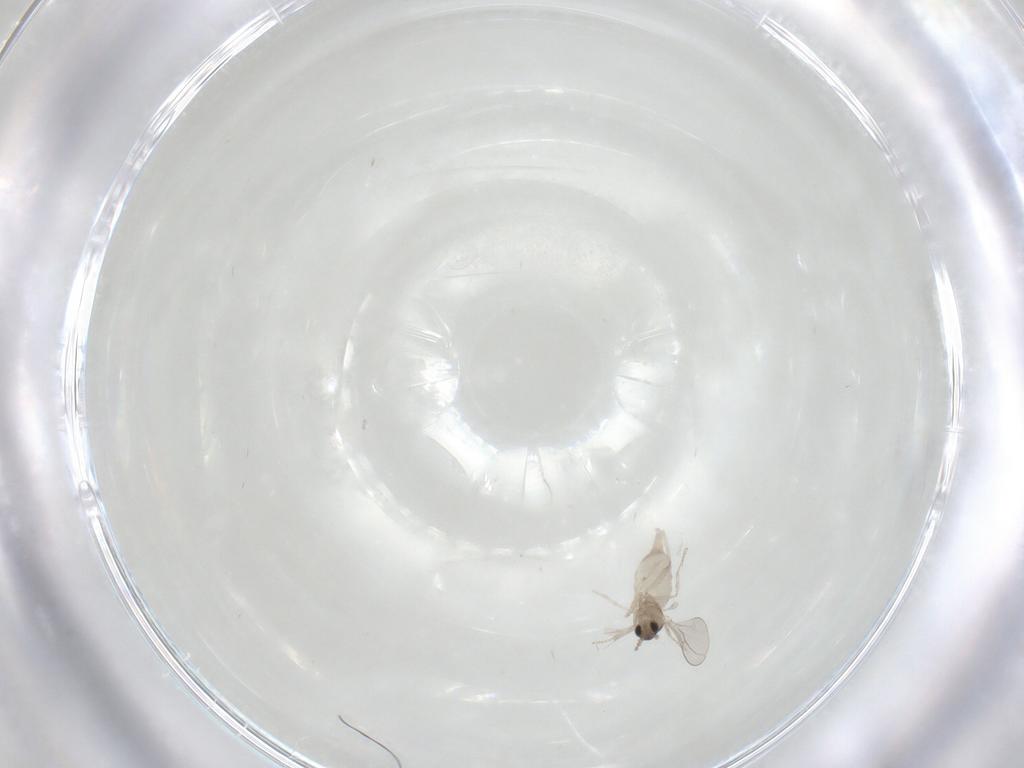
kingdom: Animalia
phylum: Arthropoda
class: Insecta
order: Diptera
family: Cecidomyiidae
